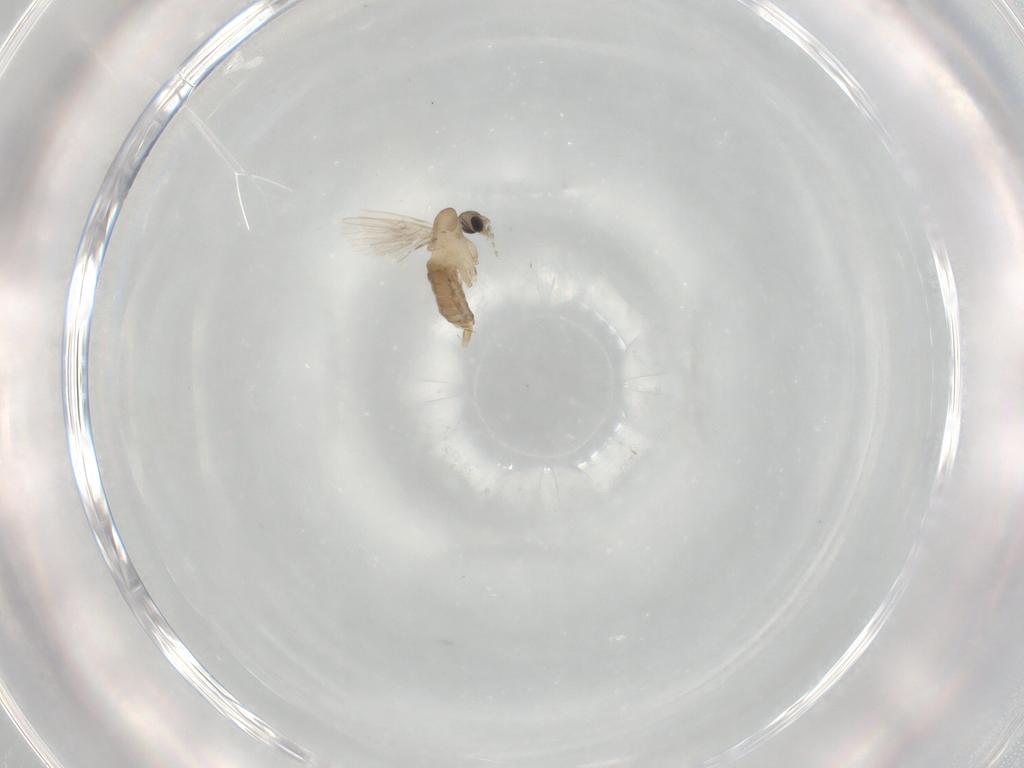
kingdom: Animalia
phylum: Arthropoda
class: Insecta
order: Diptera
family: Psychodidae
